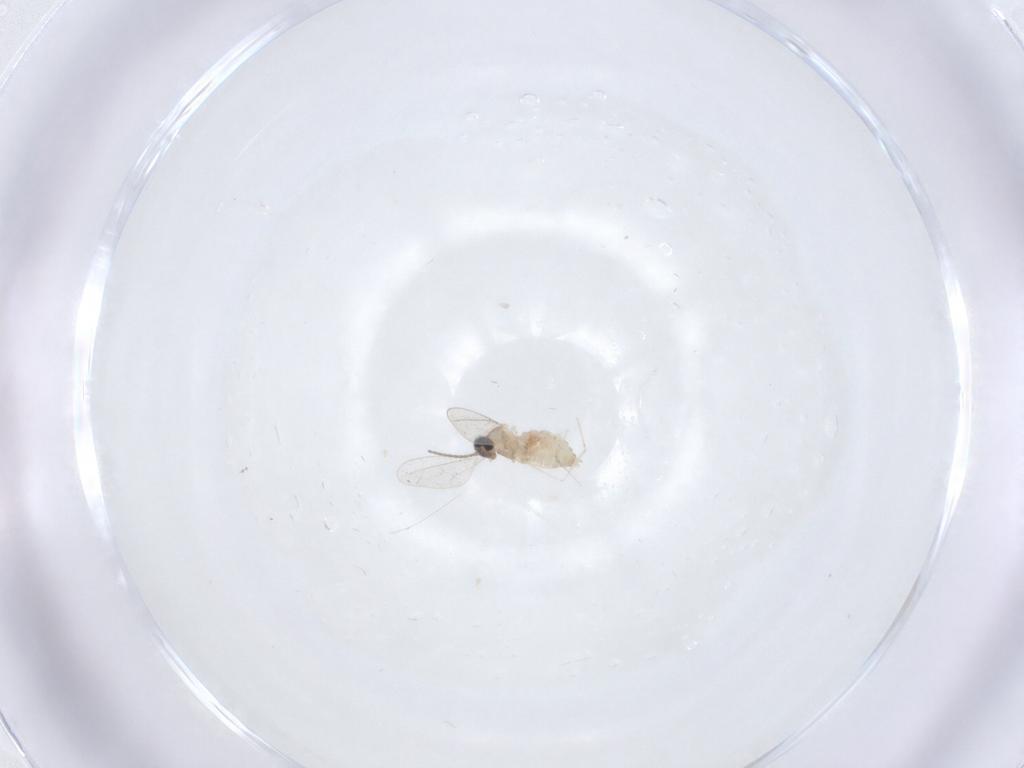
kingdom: Animalia
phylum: Arthropoda
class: Insecta
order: Diptera
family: Cecidomyiidae
